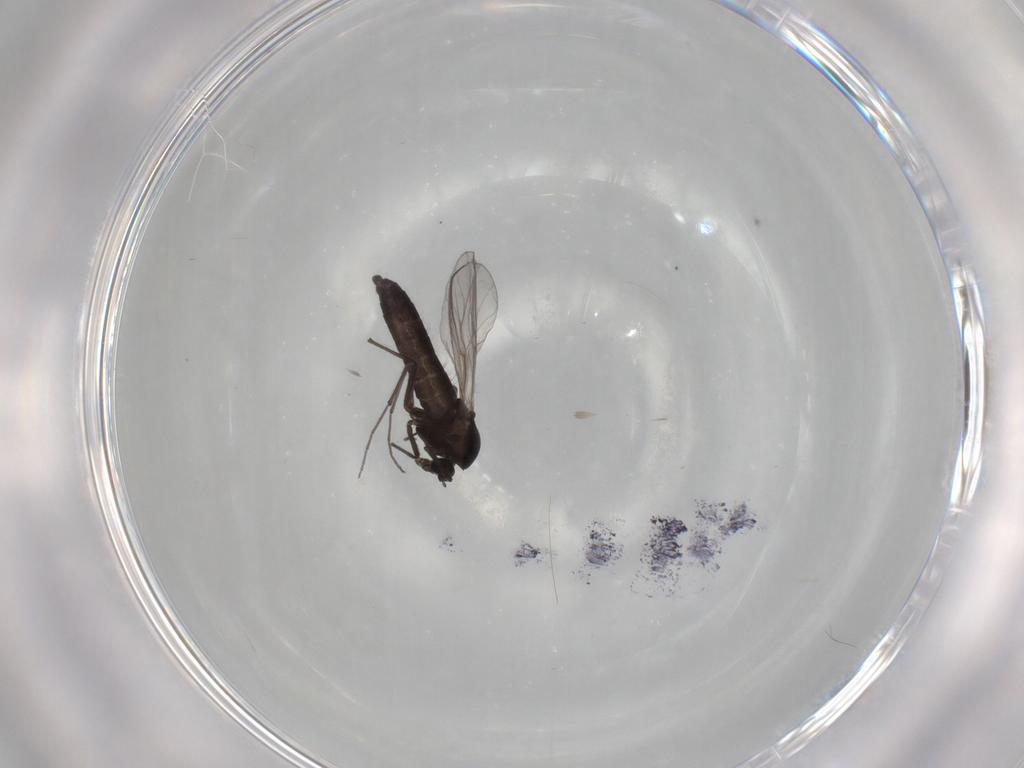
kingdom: Animalia
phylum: Arthropoda
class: Insecta
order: Diptera
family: Chironomidae
